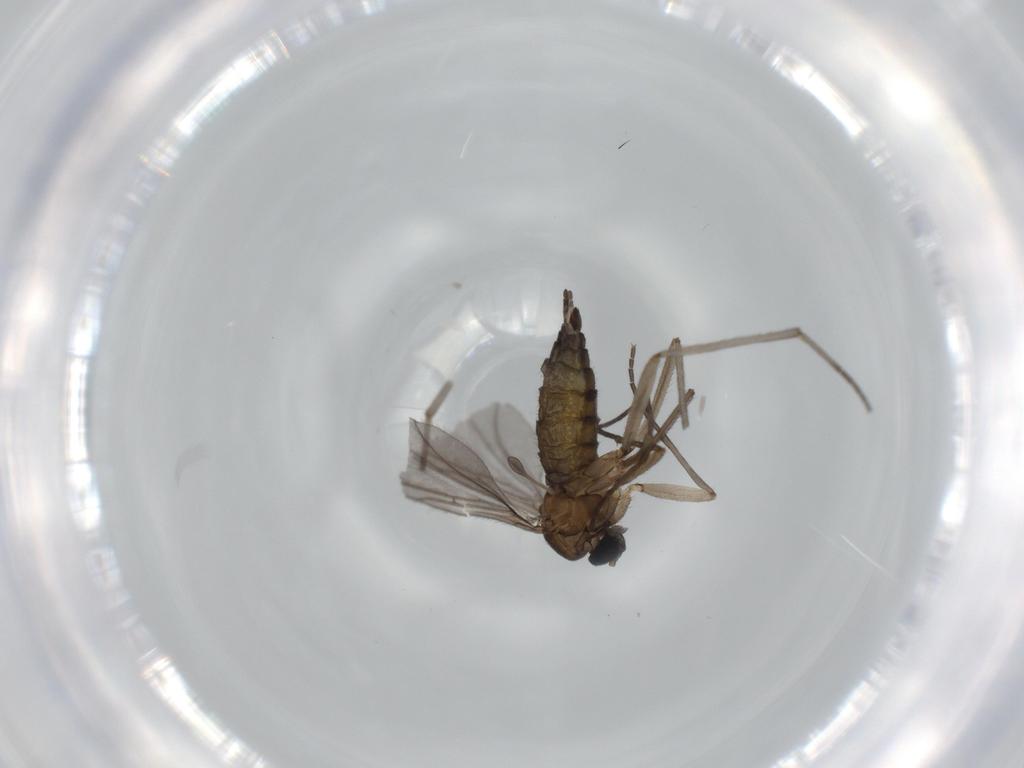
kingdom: Animalia
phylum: Arthropoda
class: Insecta
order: Diptera
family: Sciaridae
